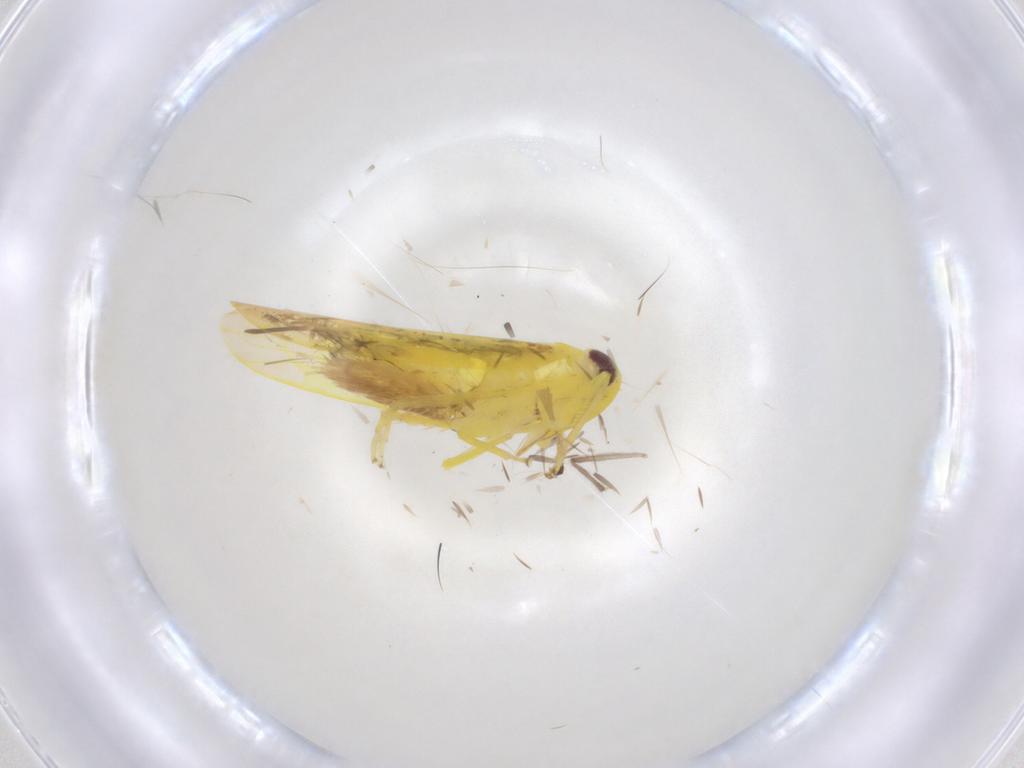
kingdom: Animalia
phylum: Arthropoda
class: Insecta
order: Hemiptera
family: Cicadellidae
